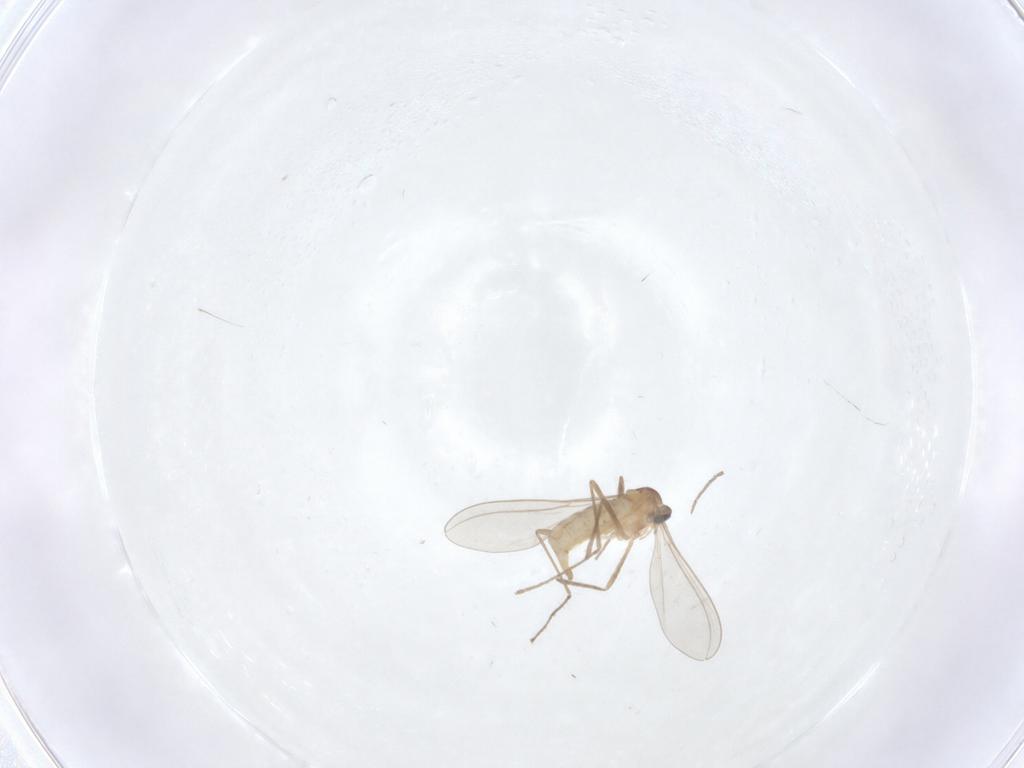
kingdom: Animalia
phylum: Arthropoda
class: Insecta
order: Diptera
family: Cecidomyiidae
